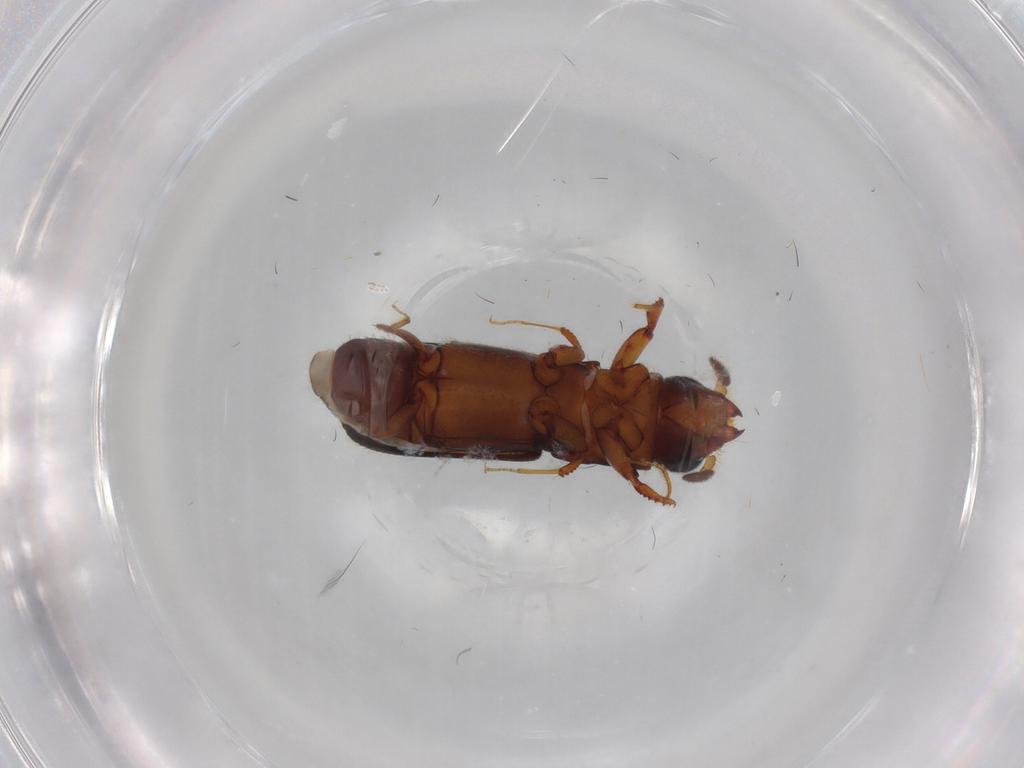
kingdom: Animalia
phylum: Arthropoda
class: Insecta
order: Coleoptera
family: Curculionidae
